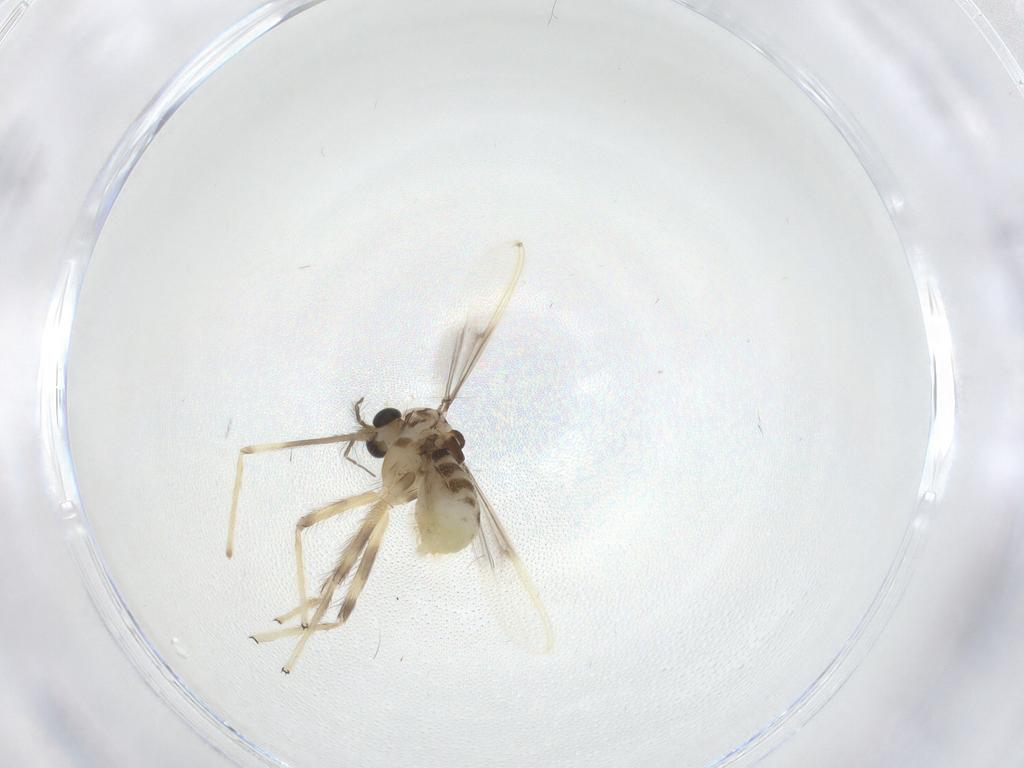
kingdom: Animalia
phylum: Arthropoda
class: Insecta
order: Diptera
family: Chironomidae
